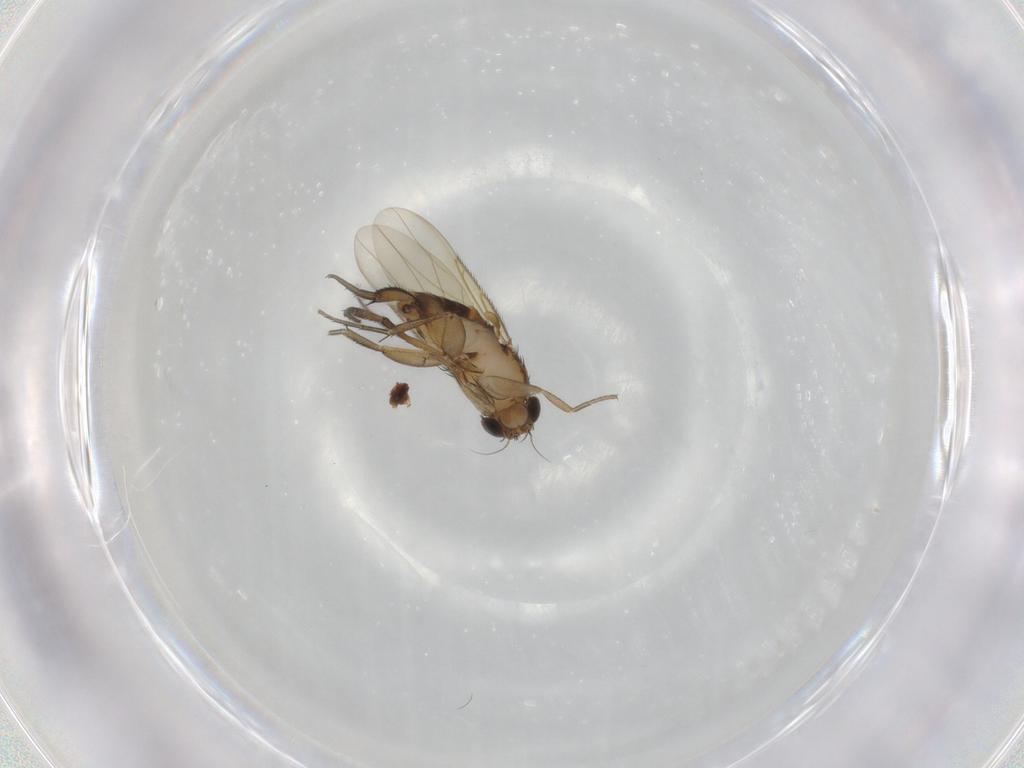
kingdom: Animalia
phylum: Arthropoda
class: Insecta
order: Diptera
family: Phoridae
